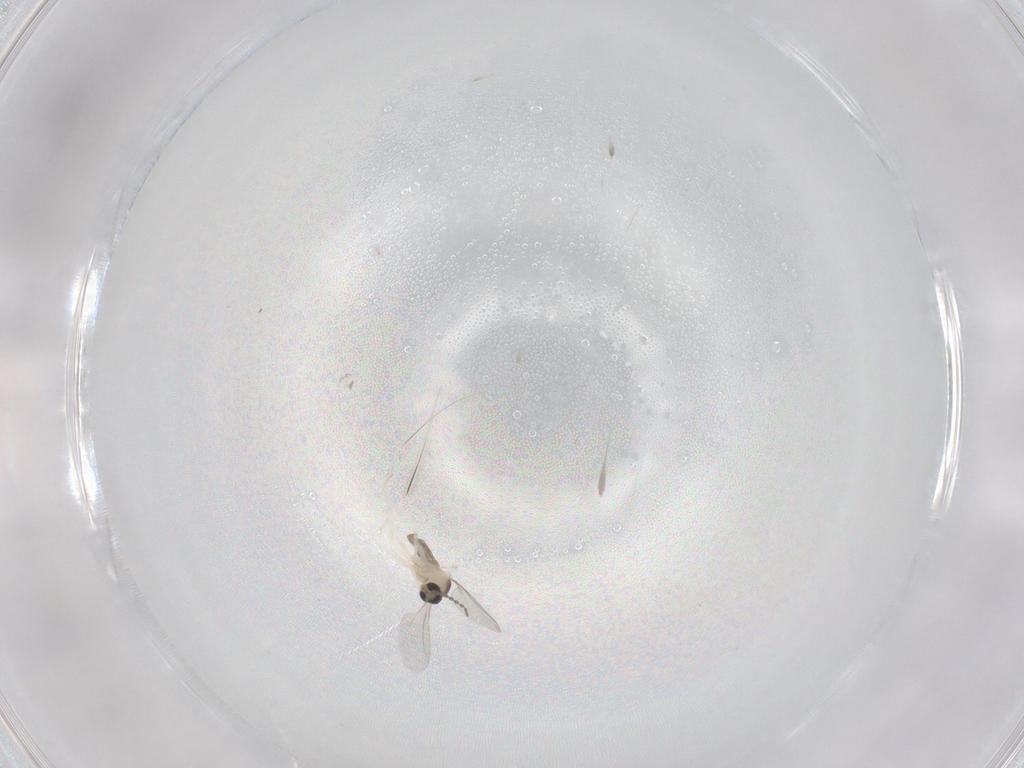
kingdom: Animalia
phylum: Arthropoda
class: Insecta
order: Diptera
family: Cecidomyiidae
